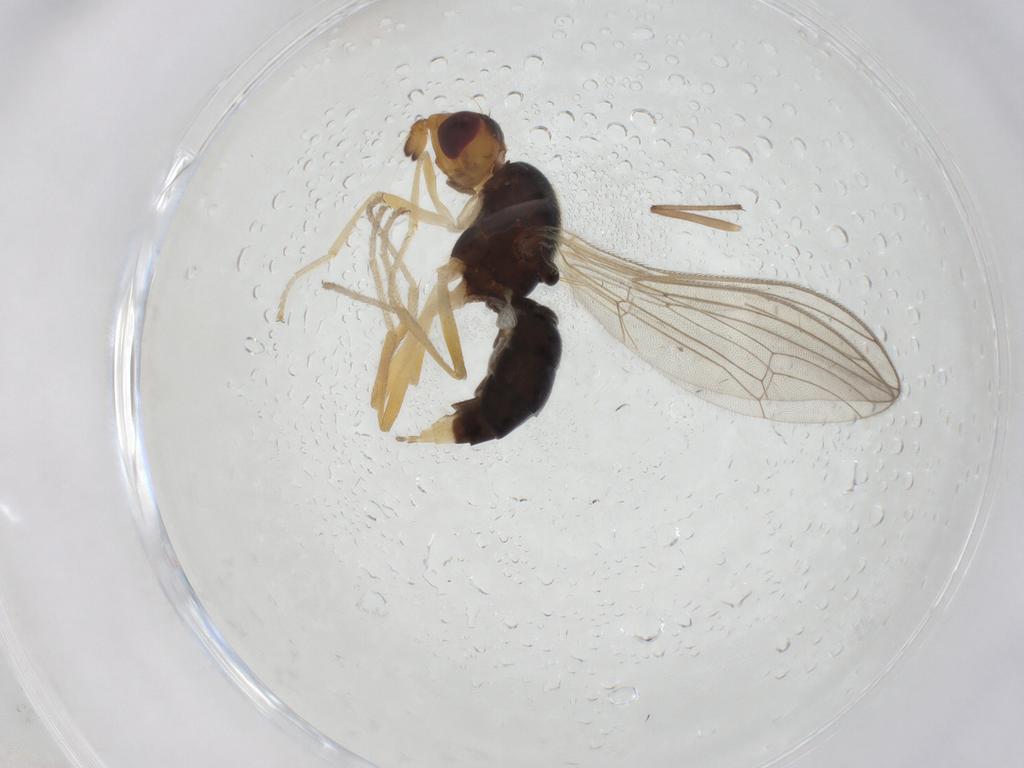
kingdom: Animalia
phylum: Arthropoda
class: Insecta
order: Diptera
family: Chironomidae
